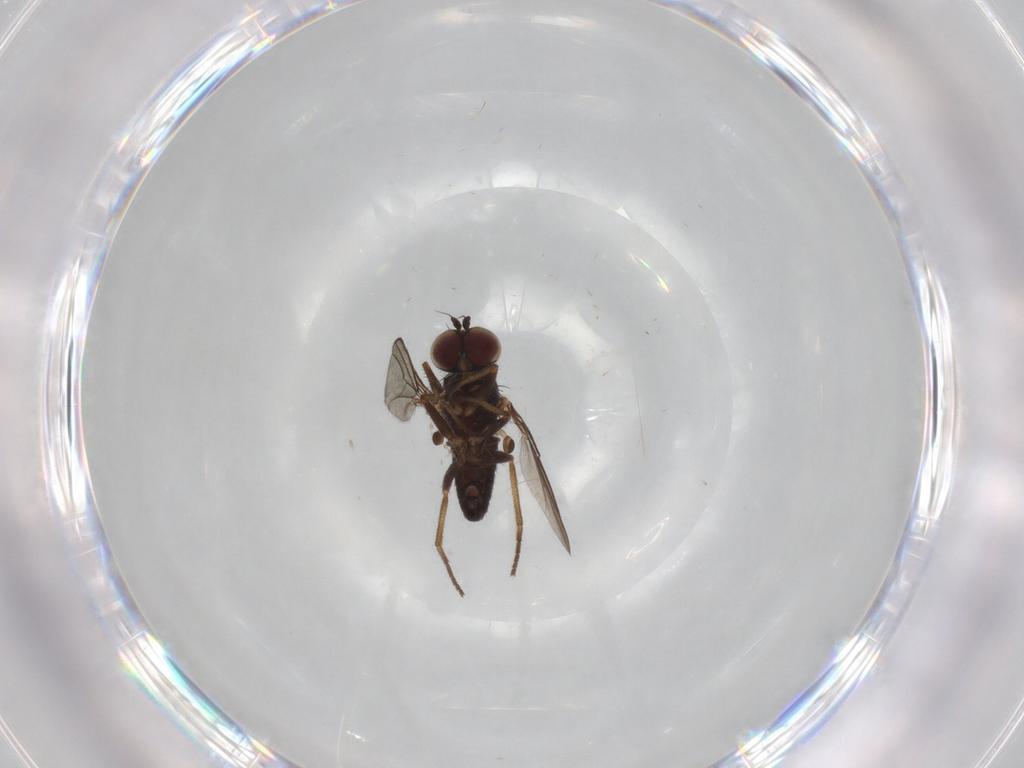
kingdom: Animalia
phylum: Arthropoda
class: Insecta
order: Diptera
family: Cecidomyiidae
